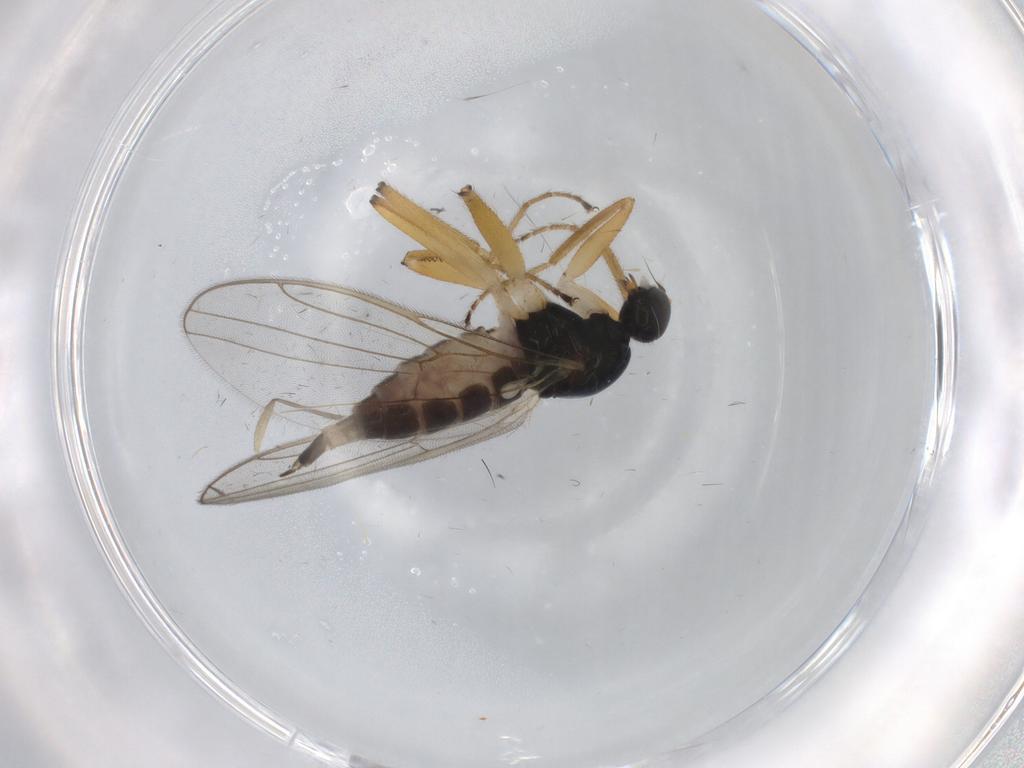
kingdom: Animalia
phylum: Arthropoda
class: Insecta
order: Diptera
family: Hybotidae
